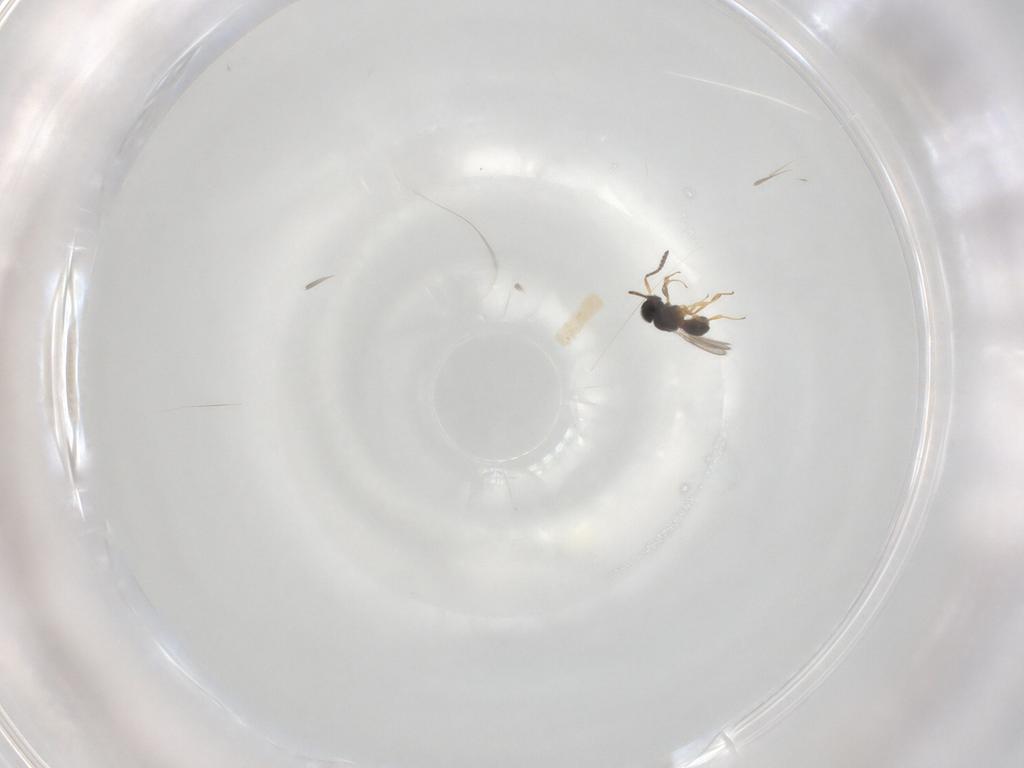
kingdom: Animalia
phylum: Arthropoda
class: Insecta
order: Hymenoptera
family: Scelionidae
